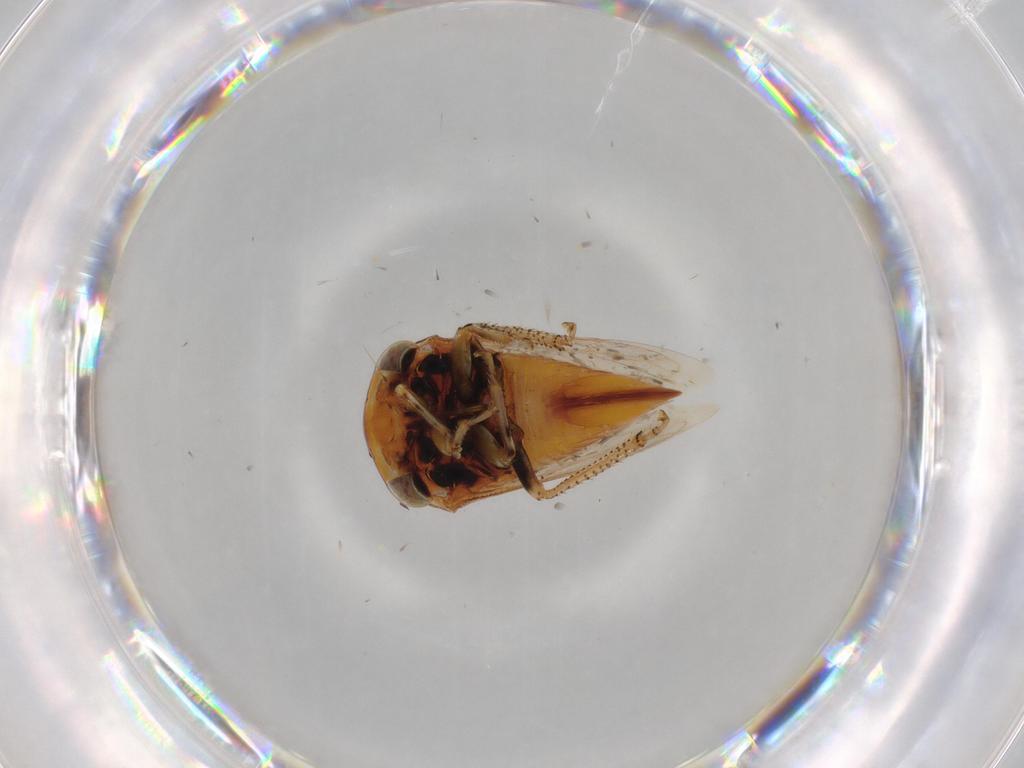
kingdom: Animalia
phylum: Arthropoda
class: Insecta
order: Hemiptera
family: Membracidae
